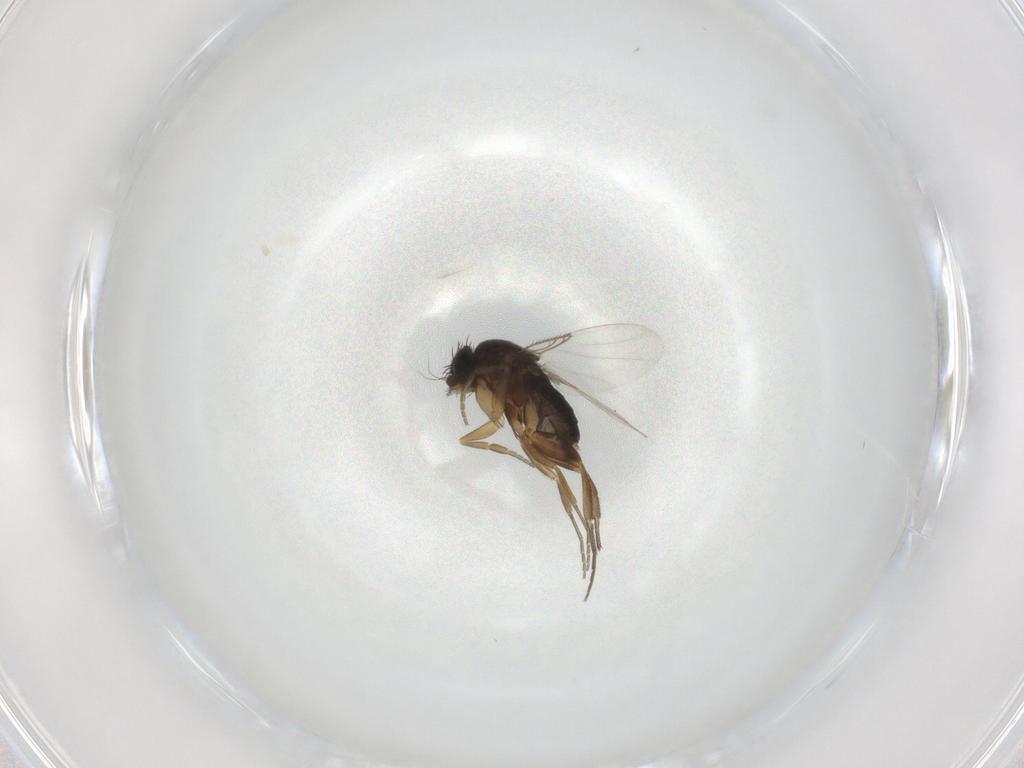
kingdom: Animalia
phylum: Arthropoda
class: Insecta
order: Diptera
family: Phoridae
